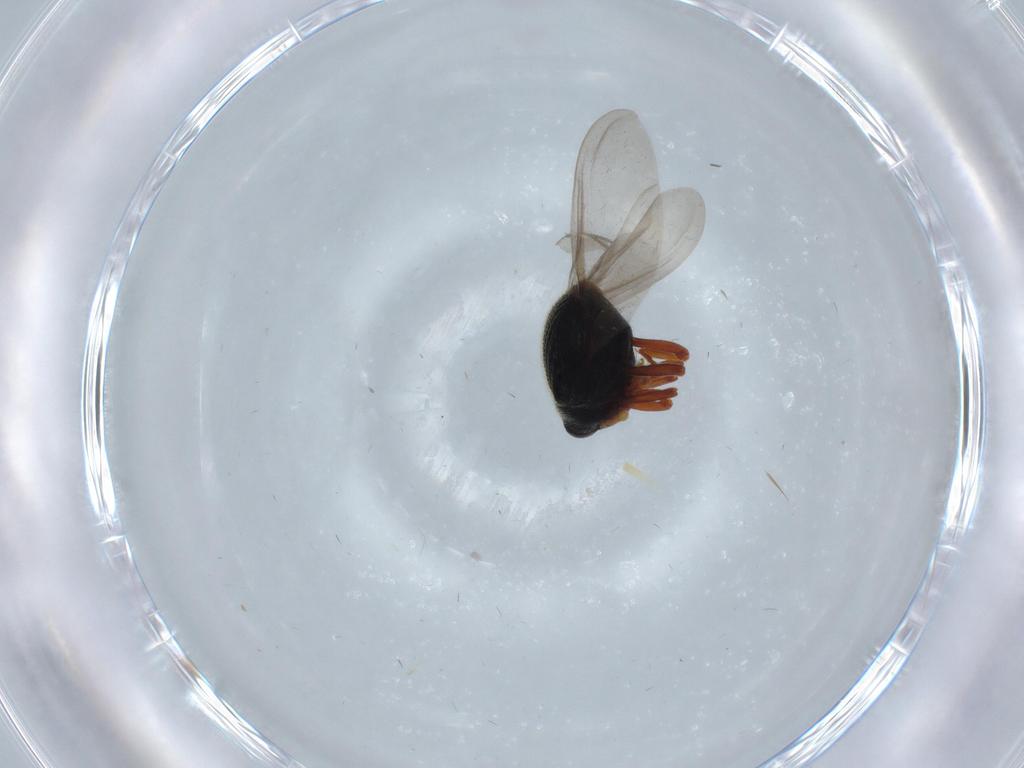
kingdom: Animalia
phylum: Arthropoda
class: Insecta
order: Coleoptera
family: Curculionidae
